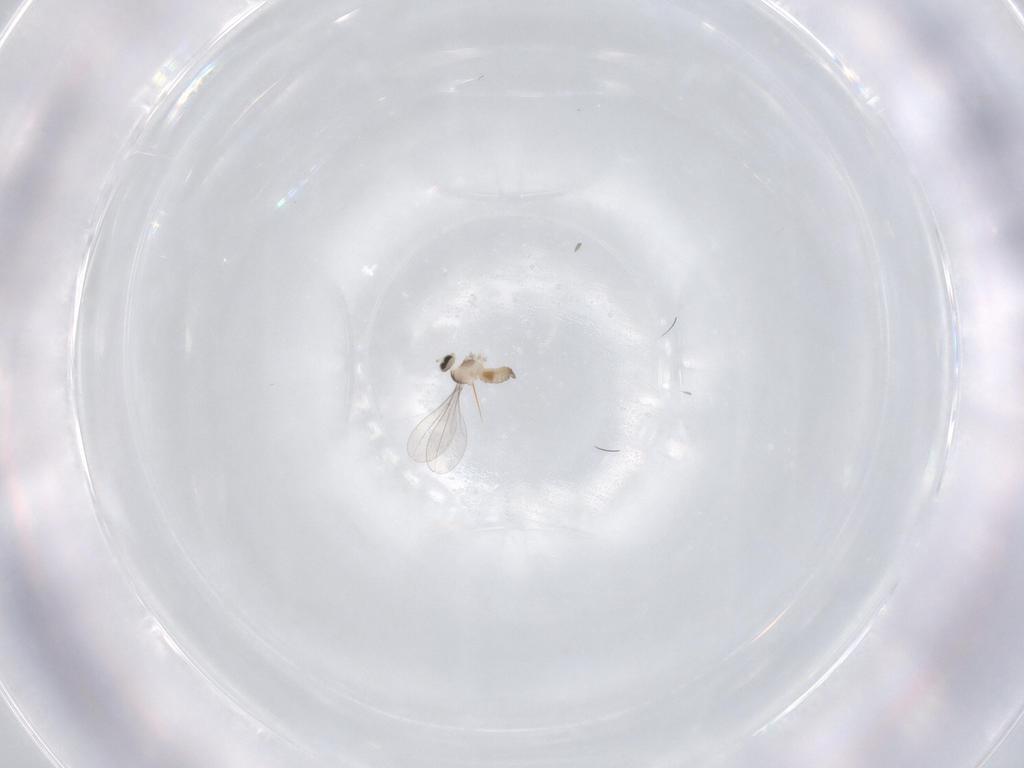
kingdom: Animalia
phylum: Arthropoda
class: Insecta
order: Diptera
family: Cecidomyiidae
